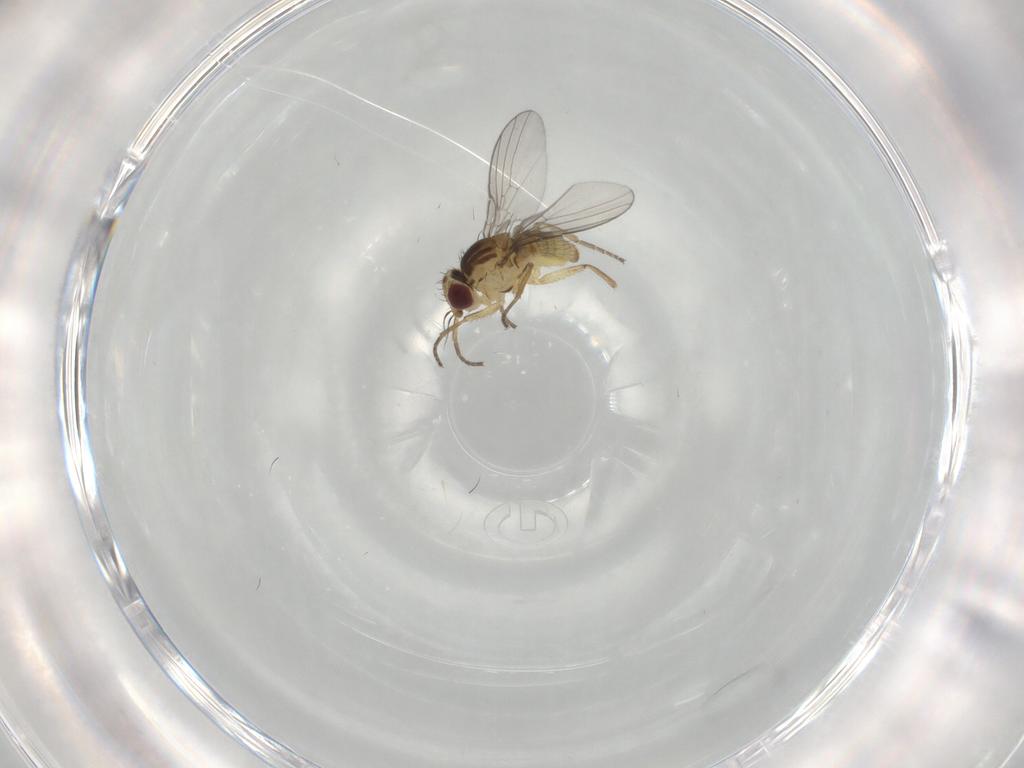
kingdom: Animalia
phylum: Arthropoda
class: Insecta
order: Diptera
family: Agromyzidae
